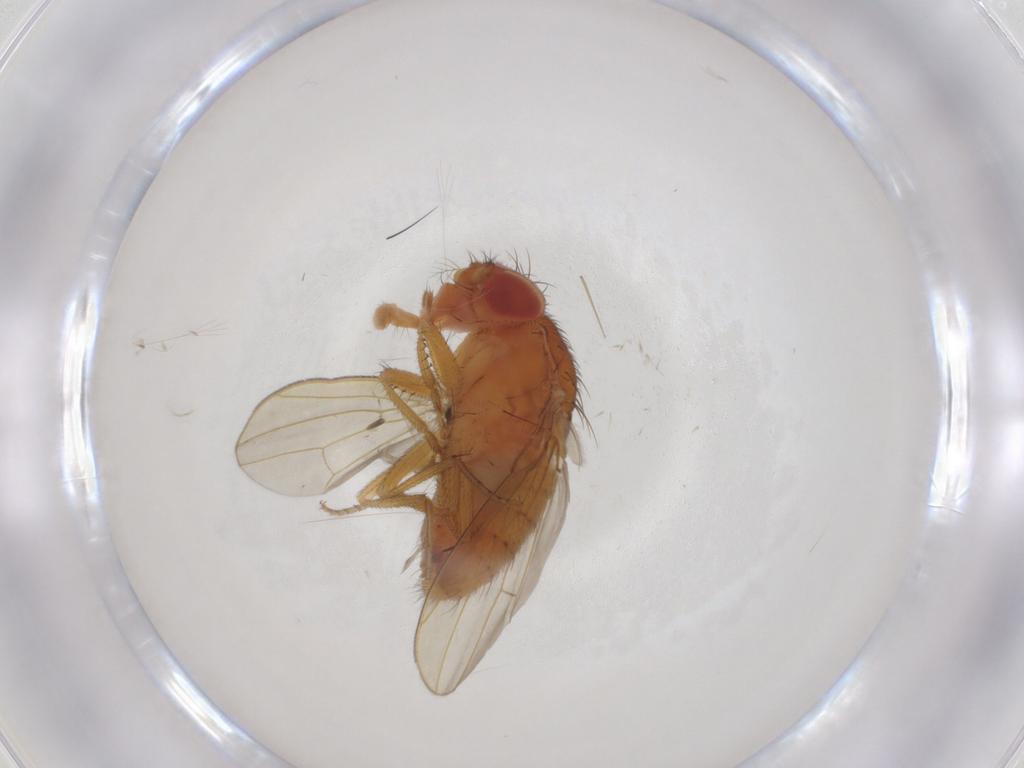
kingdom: Animalia
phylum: Arthropoda
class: Insecta
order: Diptera
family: Drosophilidae
